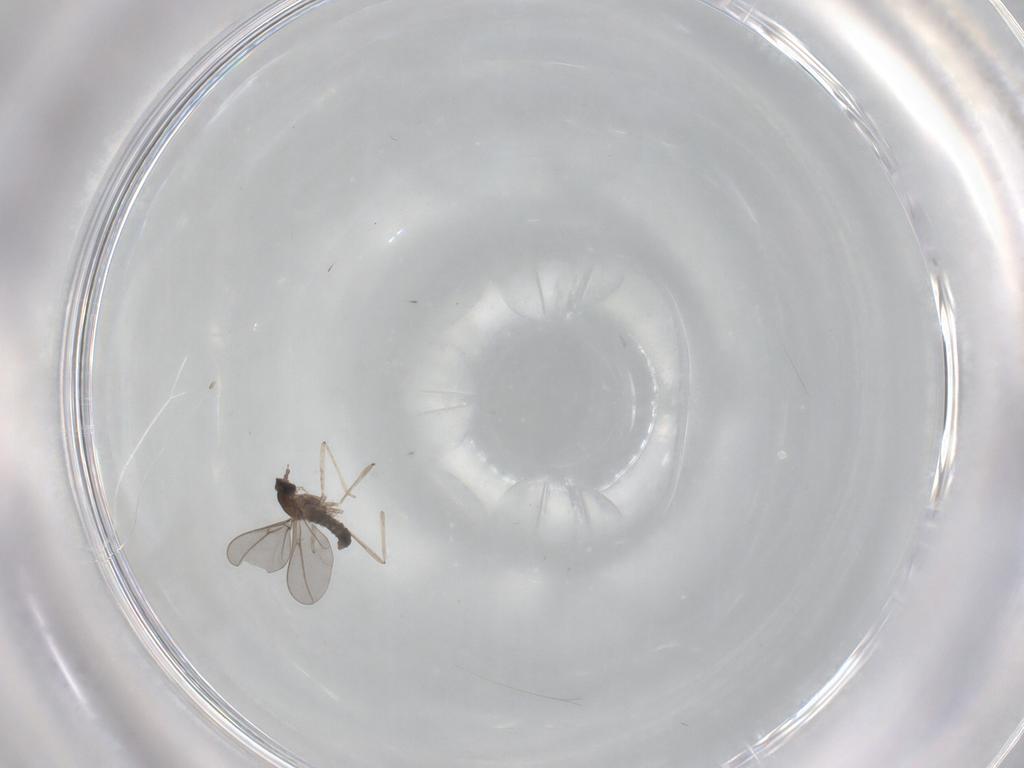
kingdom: Animalia
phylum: Arthropoda
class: Insecta
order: Diptera
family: Cecidomyiidae
